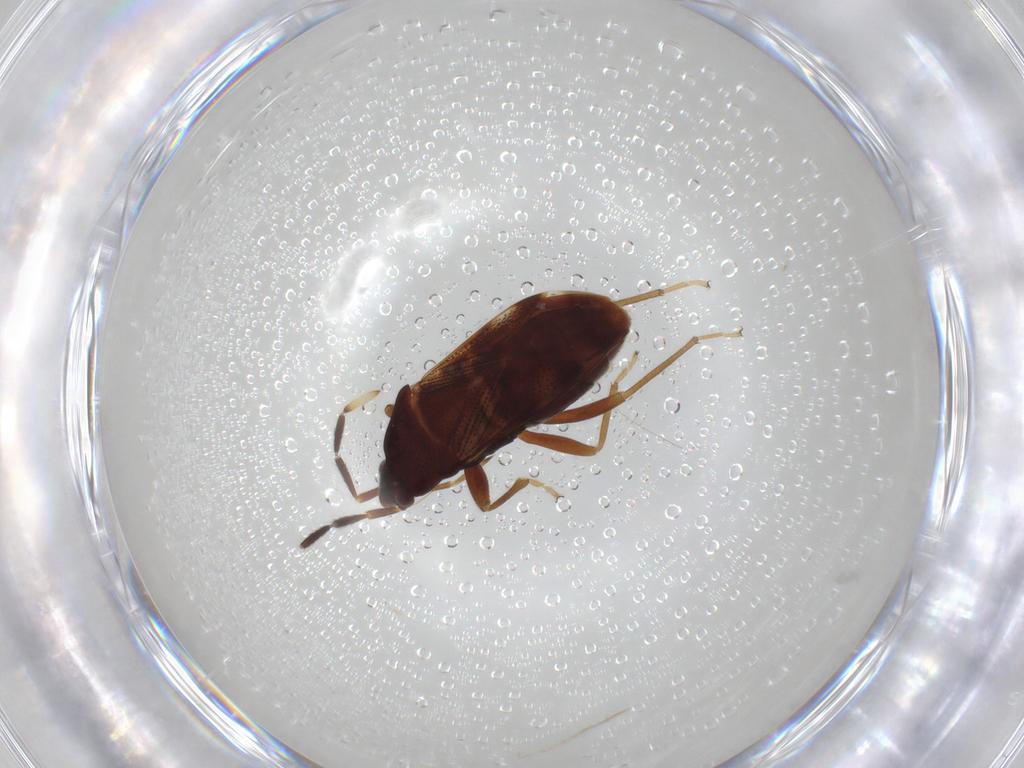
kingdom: Animalia
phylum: Arthropoda
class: Insecta
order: Hemiptera
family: Rhyparochromidae
